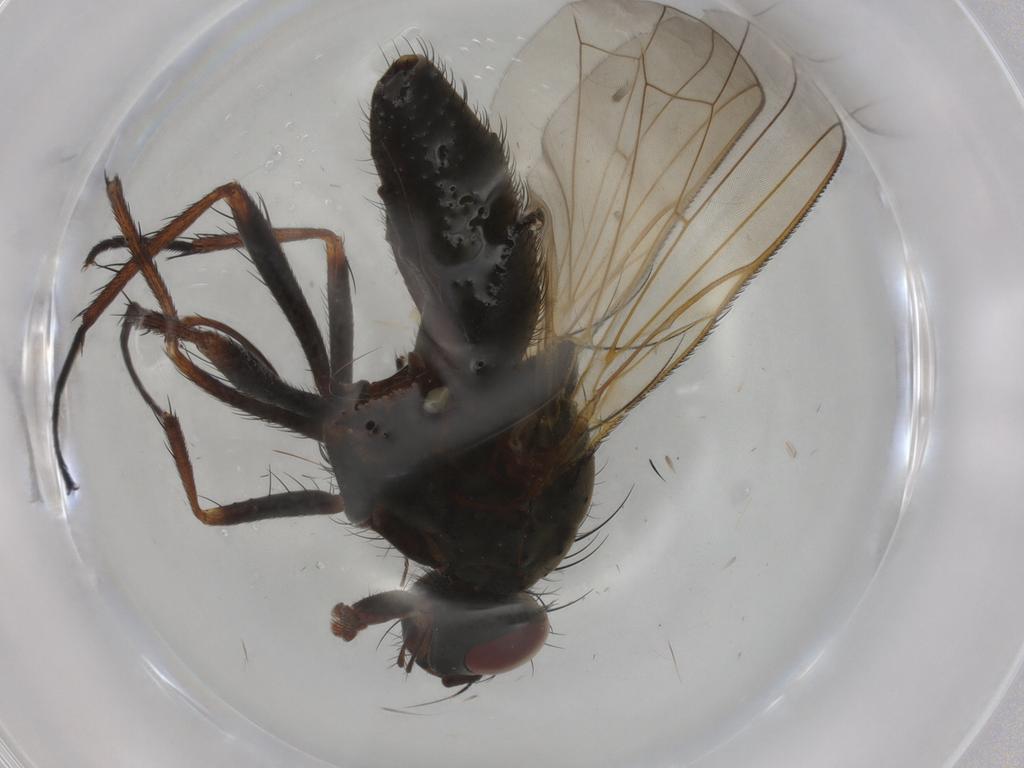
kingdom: Animalia
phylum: Arthropoda
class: Insecta
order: Diptera
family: Anthomyiidae
